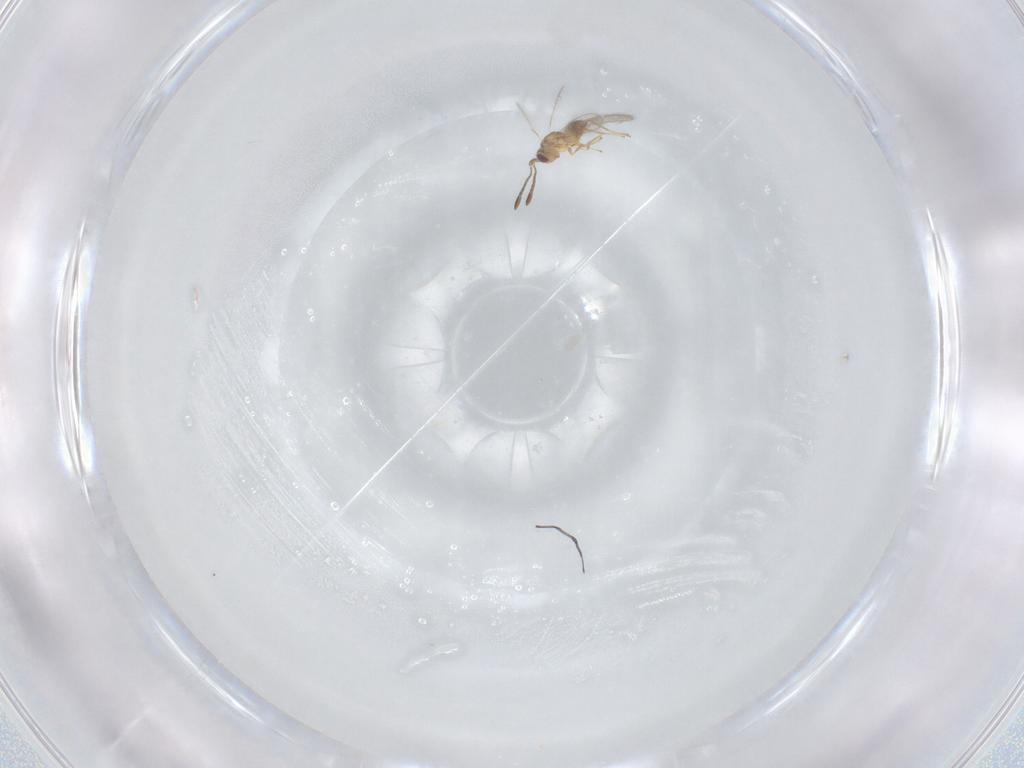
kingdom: Animalia
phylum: Arthropoda
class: Insecta
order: Hymenoptera
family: Mymaridae
